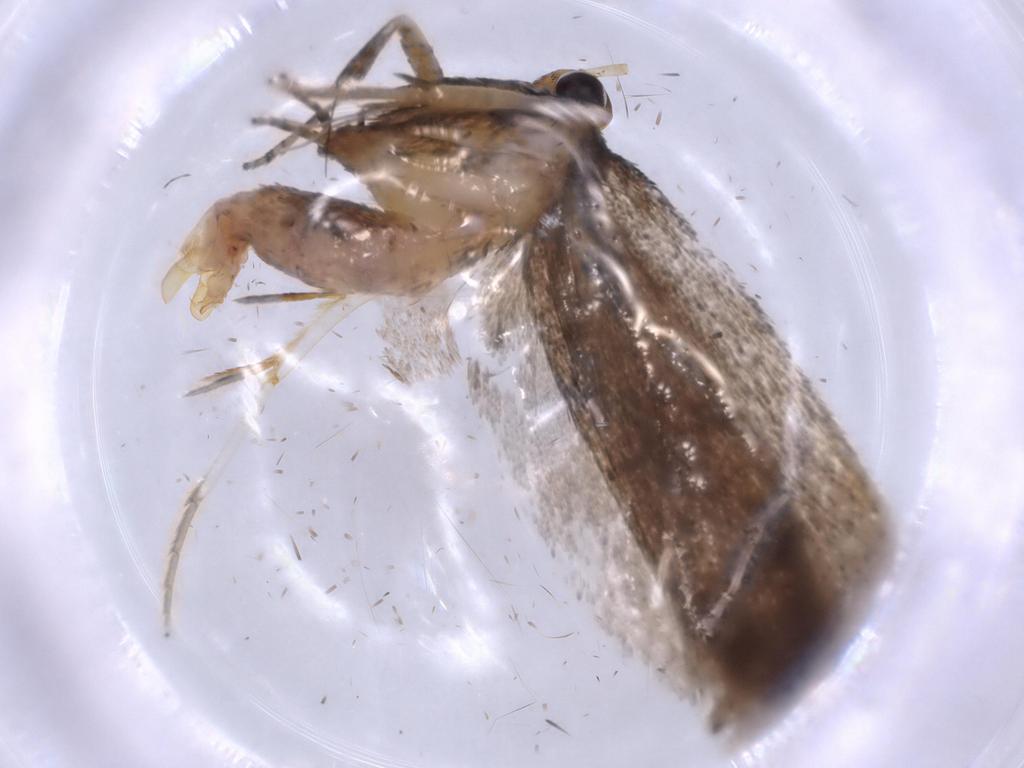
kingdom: Animalia
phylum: Arthropoda
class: Insecta
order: Lepidoptera
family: Lecithoceridae
